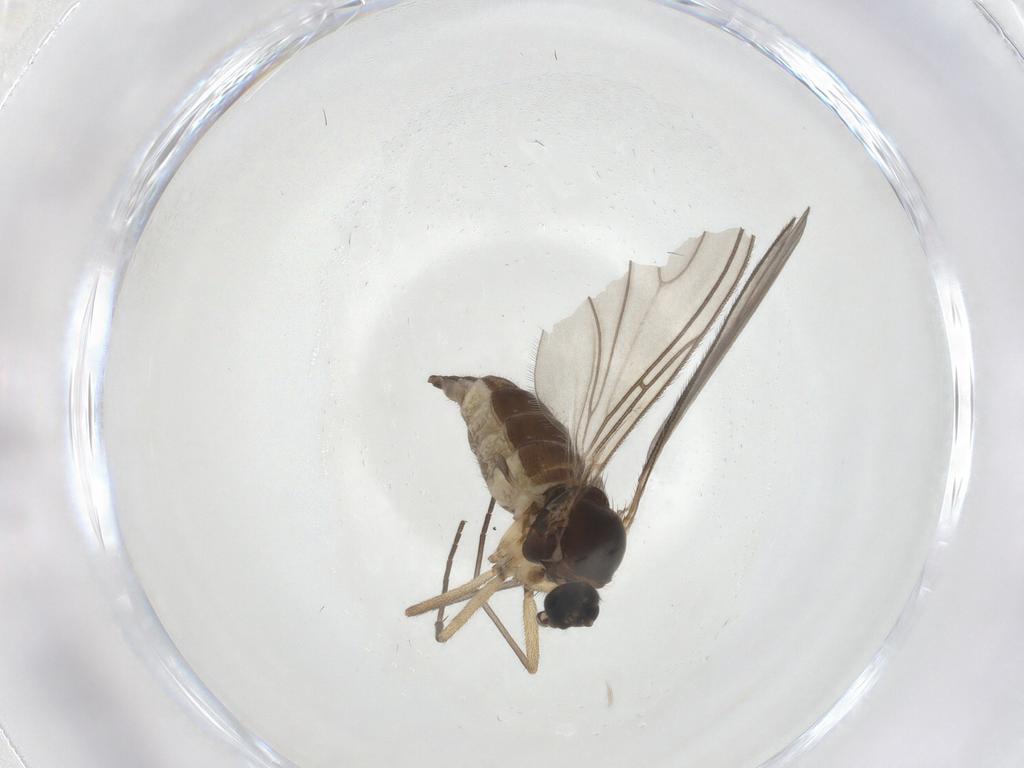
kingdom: Animalia
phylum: Arthropoda
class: Insecta
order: Diptera
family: Sciaridae
